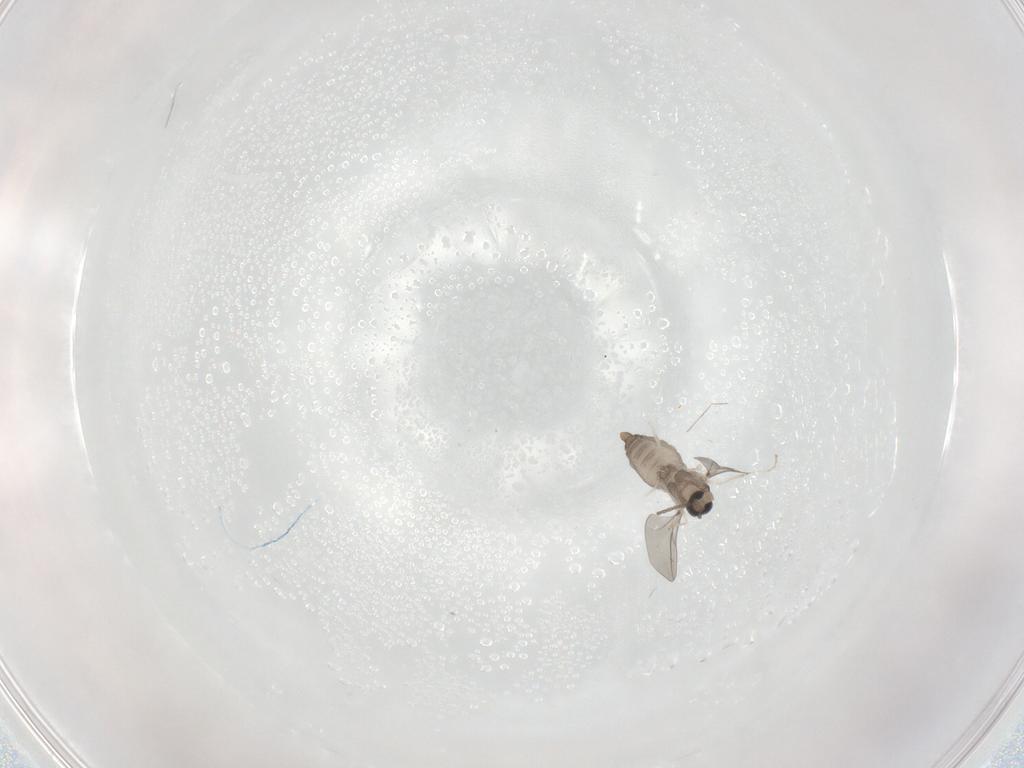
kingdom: Animalia
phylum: Arthropoda
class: Insecta
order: Diptera
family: Cecidomyiidae
